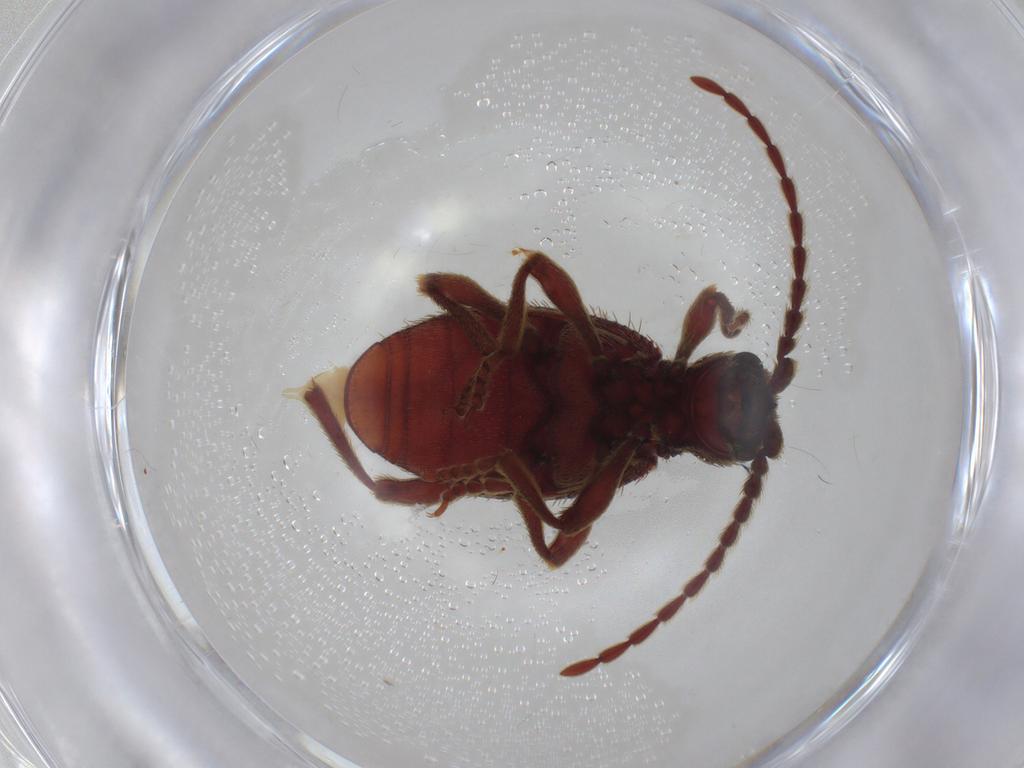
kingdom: Animalia
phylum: Arthropoda
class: Insecta
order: Coleoptera
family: Ptinidae
